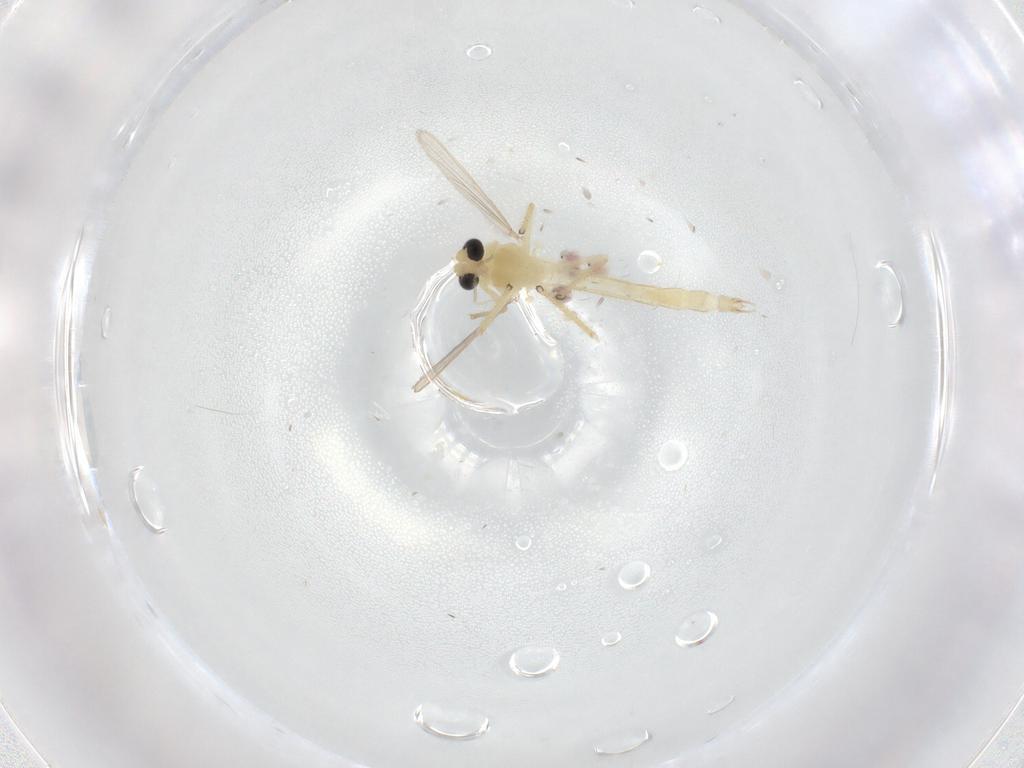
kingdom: Animalia
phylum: Arthropoda
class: Insecta
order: Diptera
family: Chironomidae
